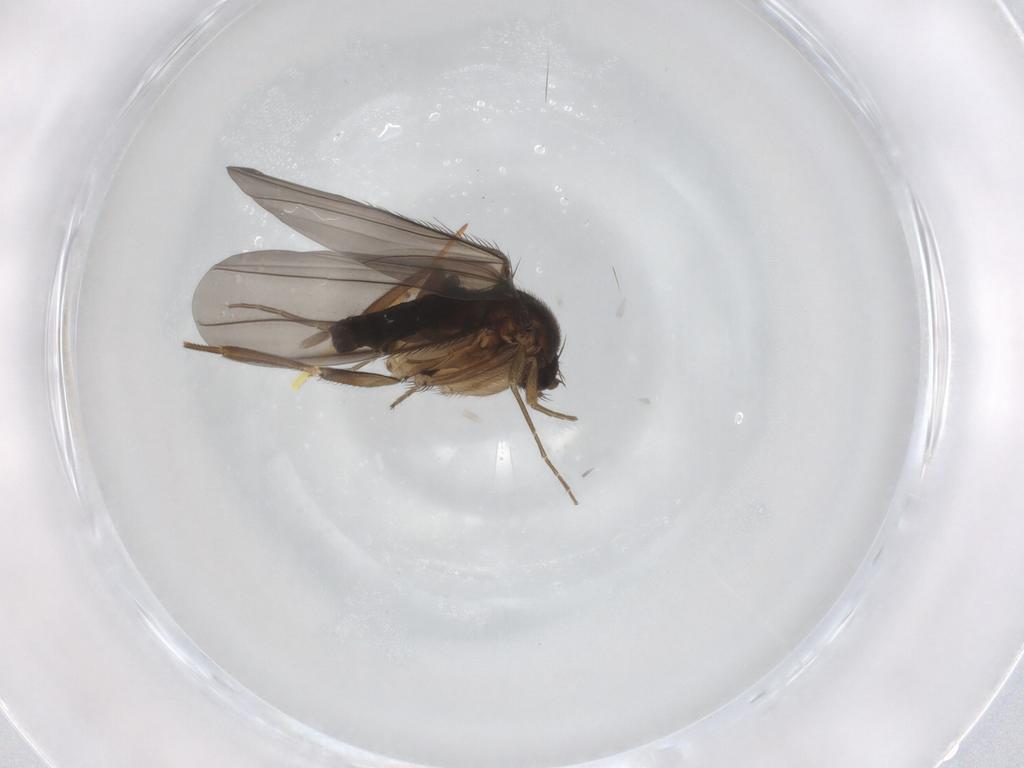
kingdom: Animalia
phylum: Arthropoda
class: Insecta
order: Diptera
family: Phoridae
